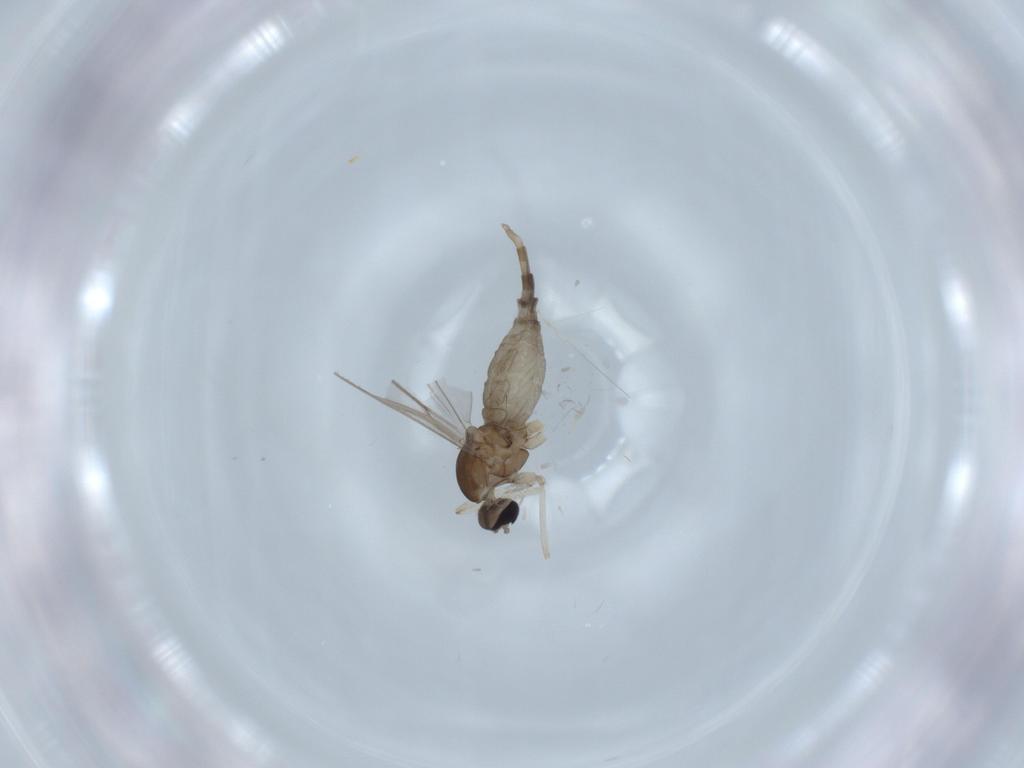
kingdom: Animalia
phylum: Arthropoda
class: Insecta
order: Diptera
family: Cecidomyiidae
